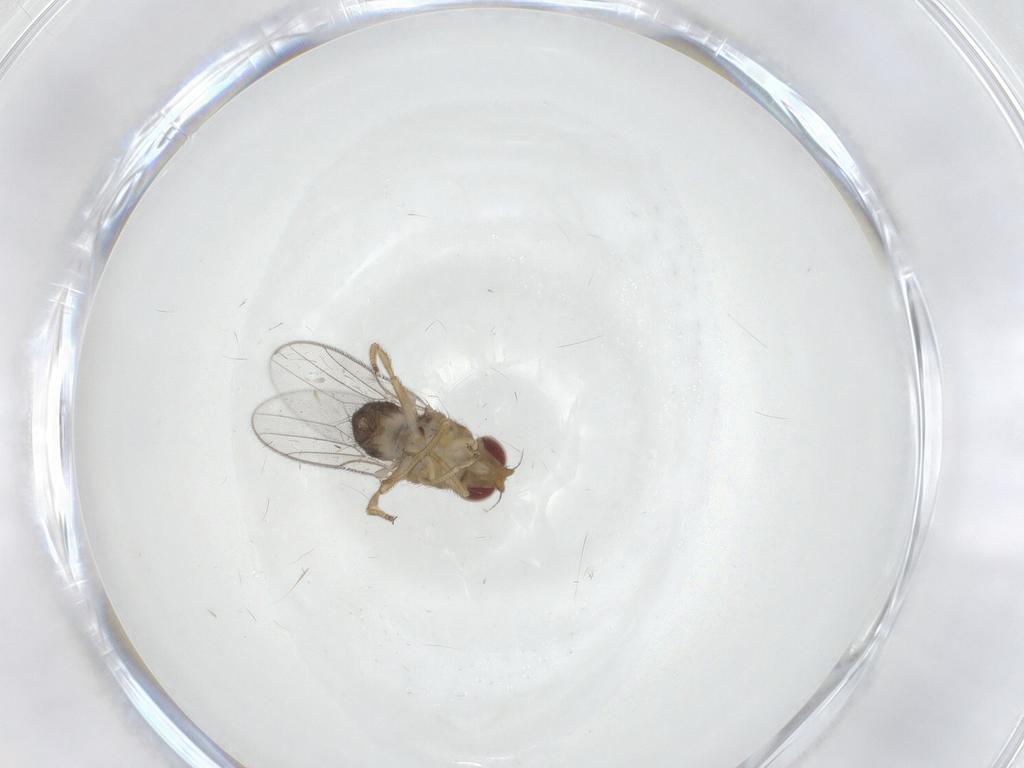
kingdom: Animalia
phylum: Arthropoda
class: Insecta
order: Diptera
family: Chloropidae
